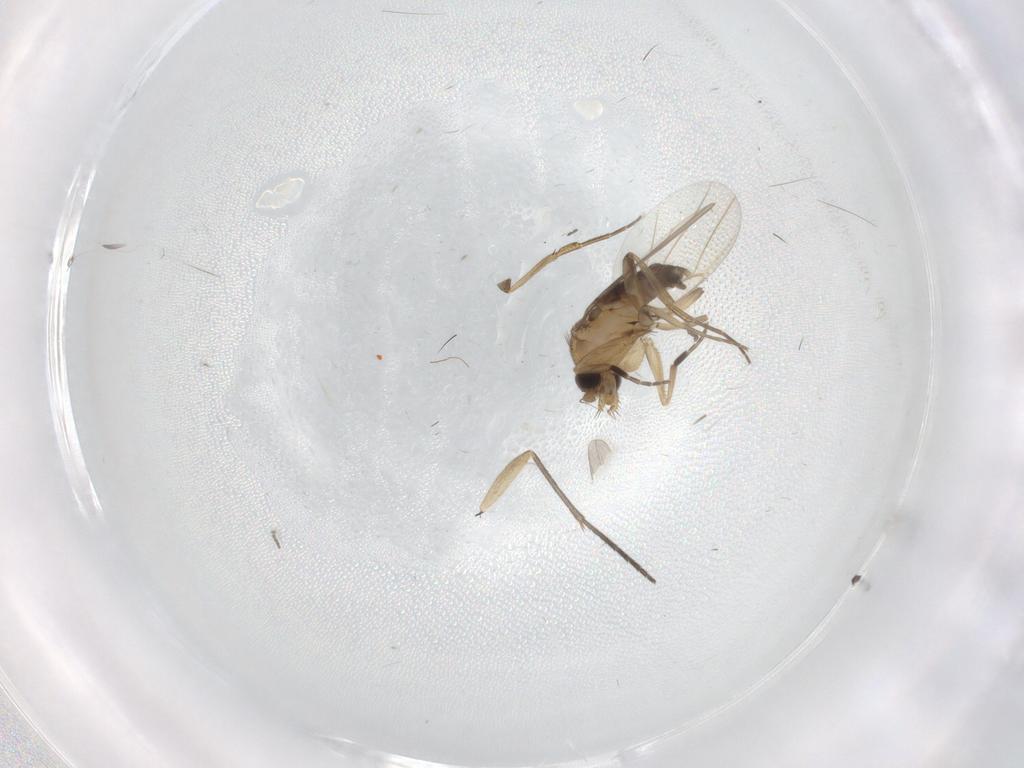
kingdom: Animalia
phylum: Arthropoda
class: Insecta
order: Diptera
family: Phoridae
